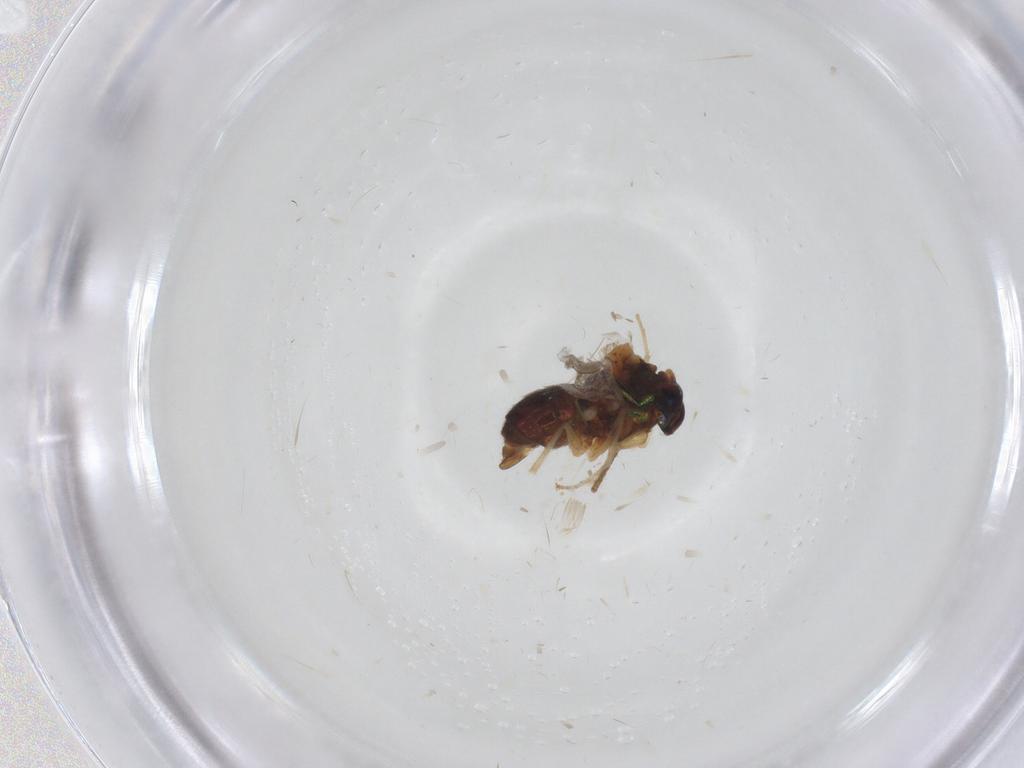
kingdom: Animalia
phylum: Arthropoda
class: Insecta
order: Diptera
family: Dolichopodidae
